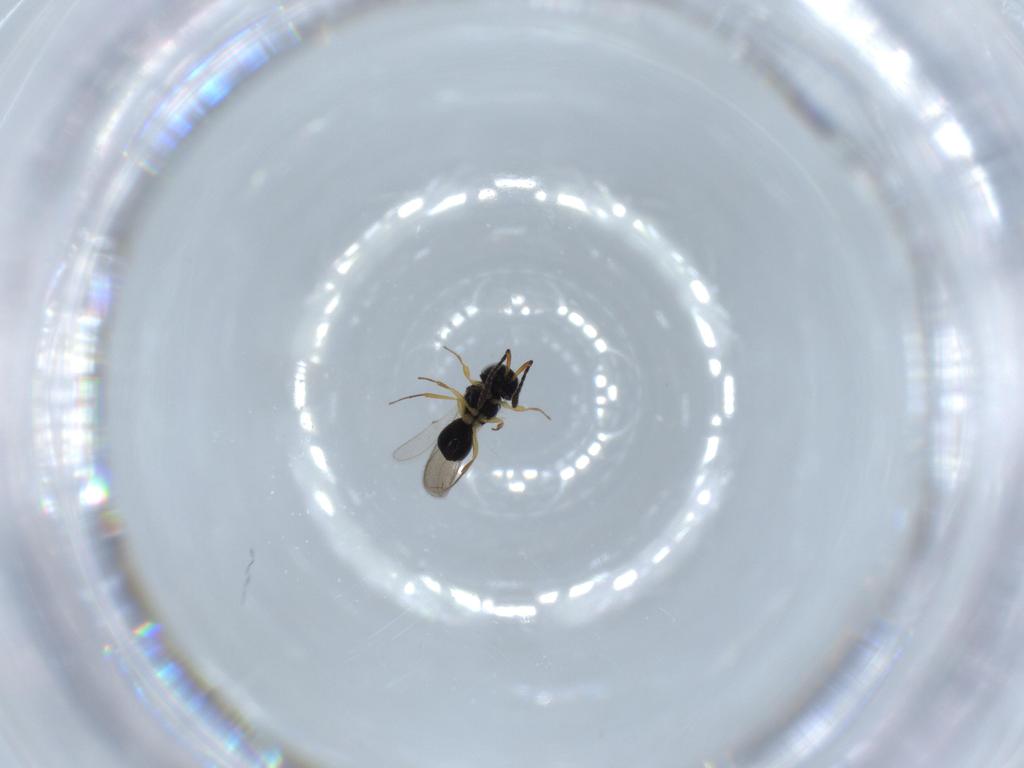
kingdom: Animalia
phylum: Arthropoda
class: Insecta
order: Hymenoptera
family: Scelionidae
